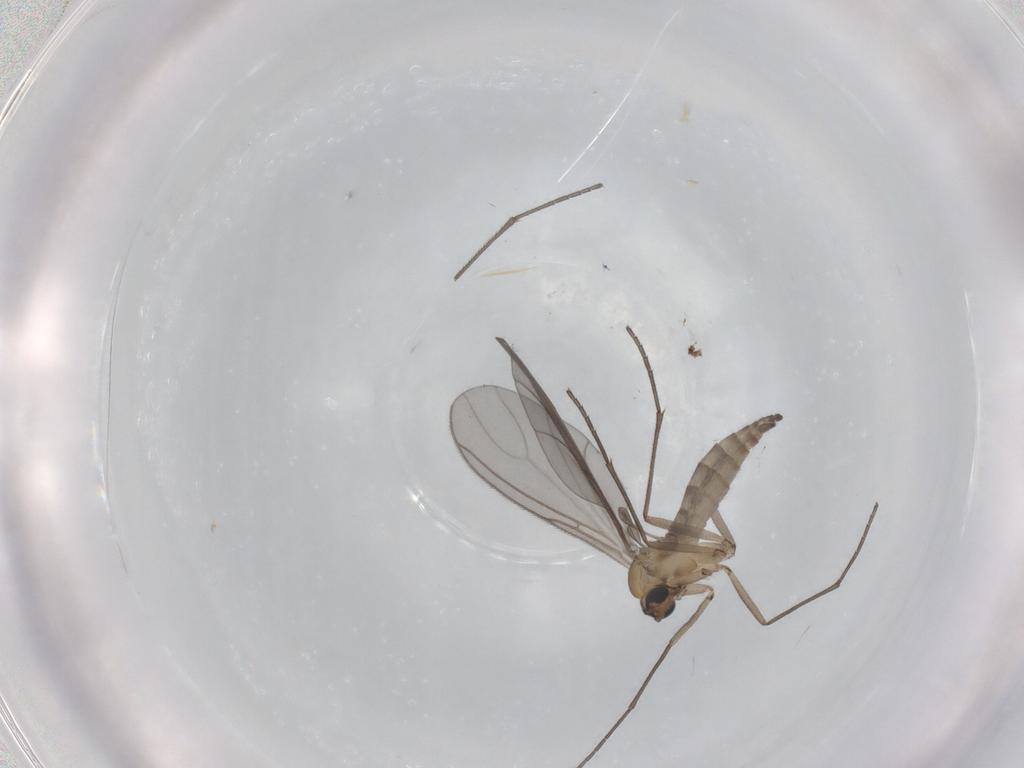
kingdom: Animalia
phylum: Arthropoda
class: Insecta
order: Diptera
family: Sciaridae
